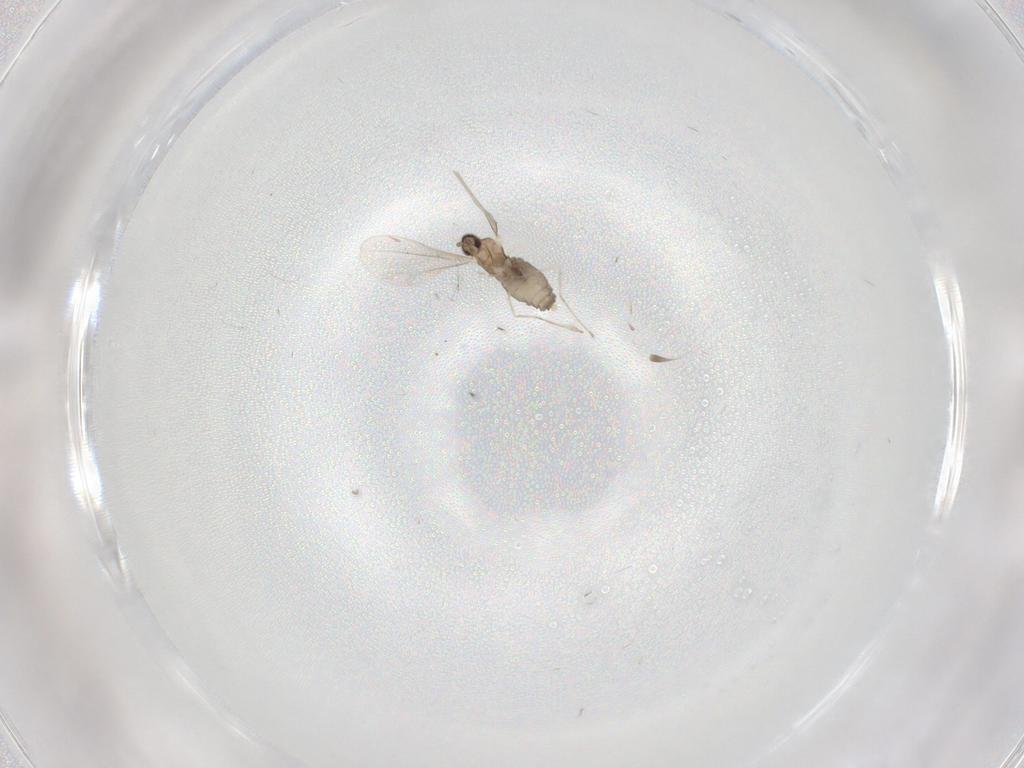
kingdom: Animalia
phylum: Arthropoda
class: Insecta
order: Diptera
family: Cecidomyiidae
